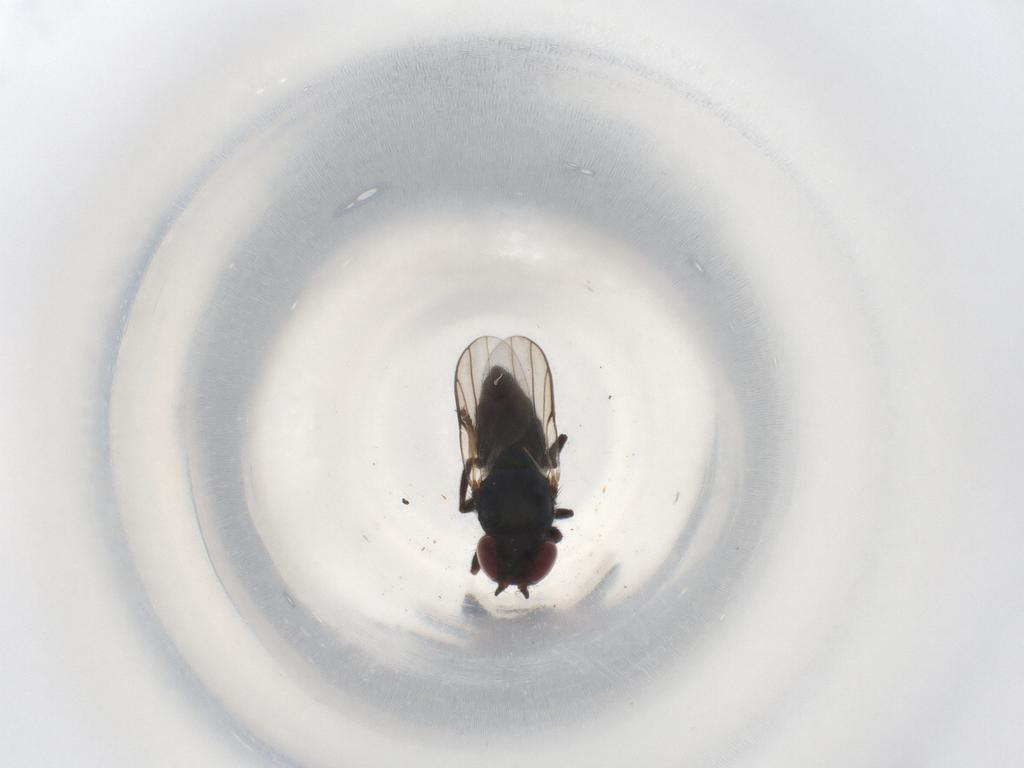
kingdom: Animalia
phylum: Arthropoda
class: Insecta
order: Diptera
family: Chloropidae
